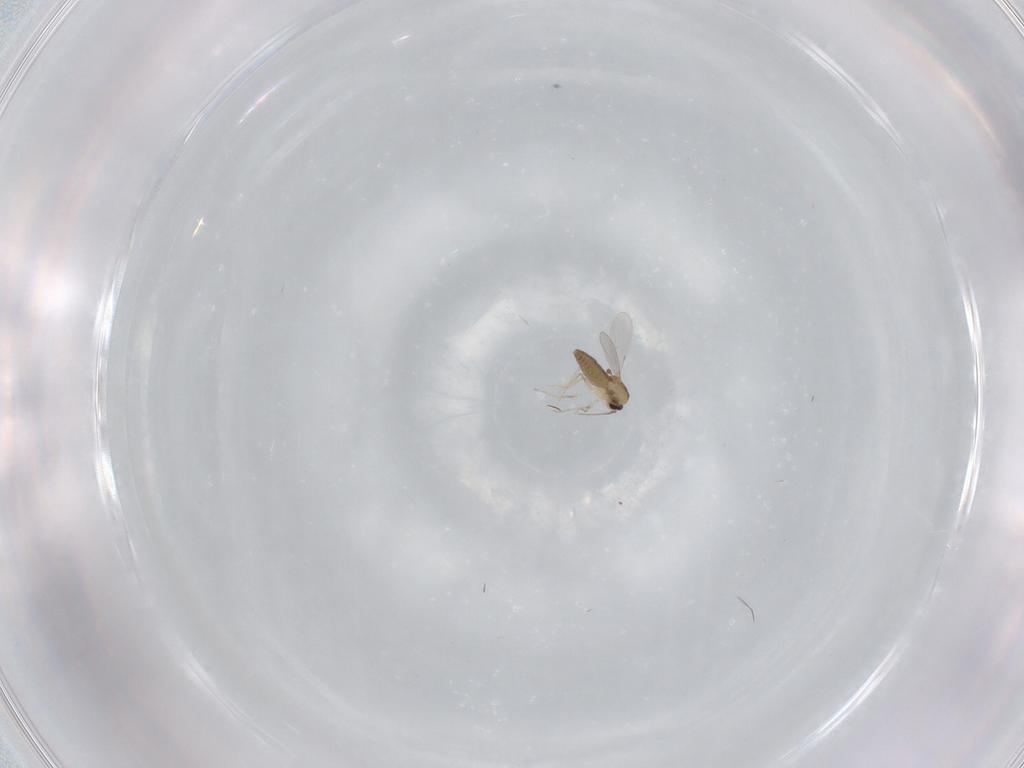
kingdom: Animalia
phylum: Arthropoda
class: Insecta
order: Diptera
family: Ceratopogonidae
